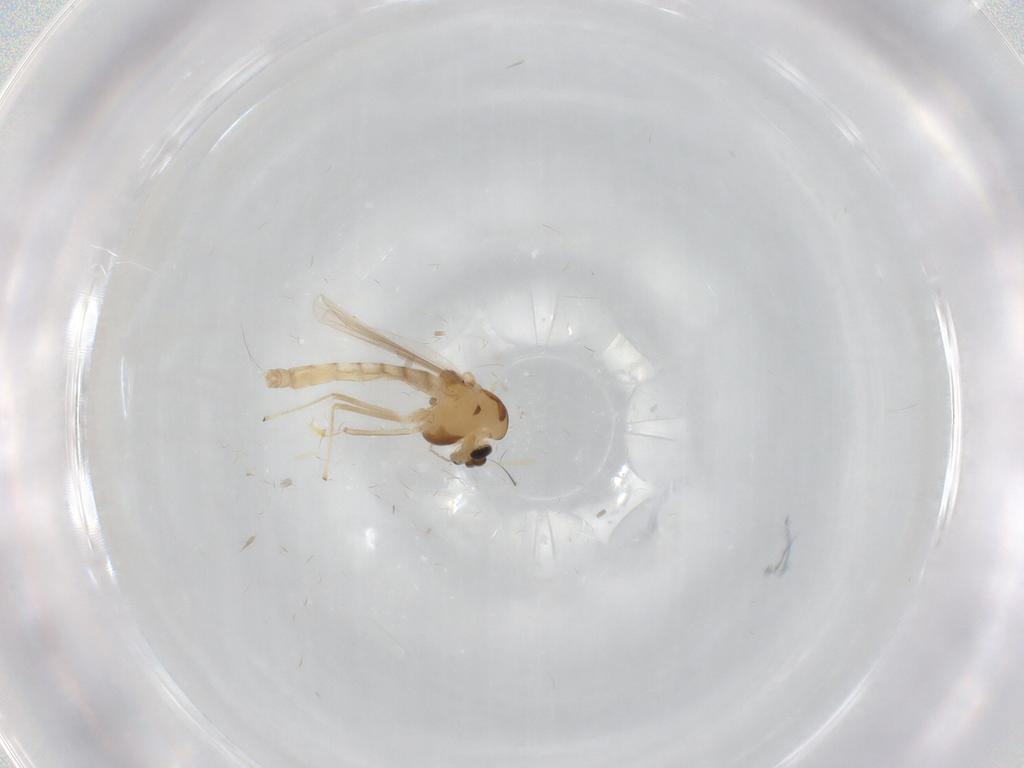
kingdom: Animalia
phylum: Arthropoda
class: Insecta
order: Diptera
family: Chironomidae
